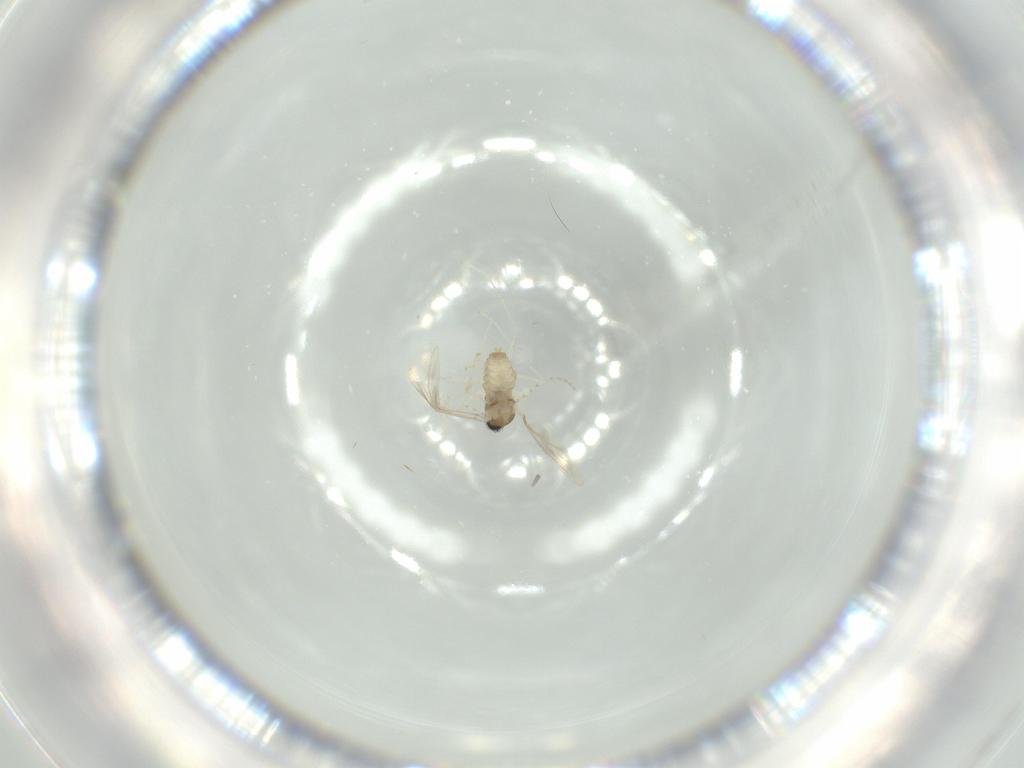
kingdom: Animalia
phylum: Arthropoda
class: Insecta
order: Diptera
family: Cecidomyiidae
